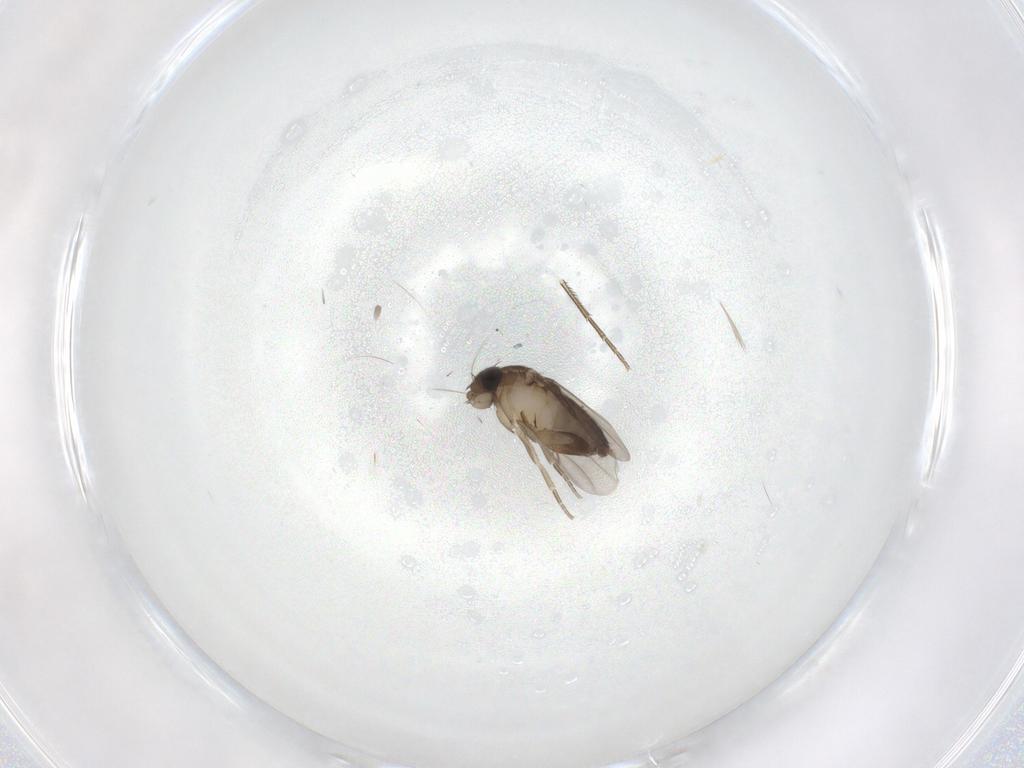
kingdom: Animalia
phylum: Arthropoda
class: Insecta
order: Diptera
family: Phoridae
